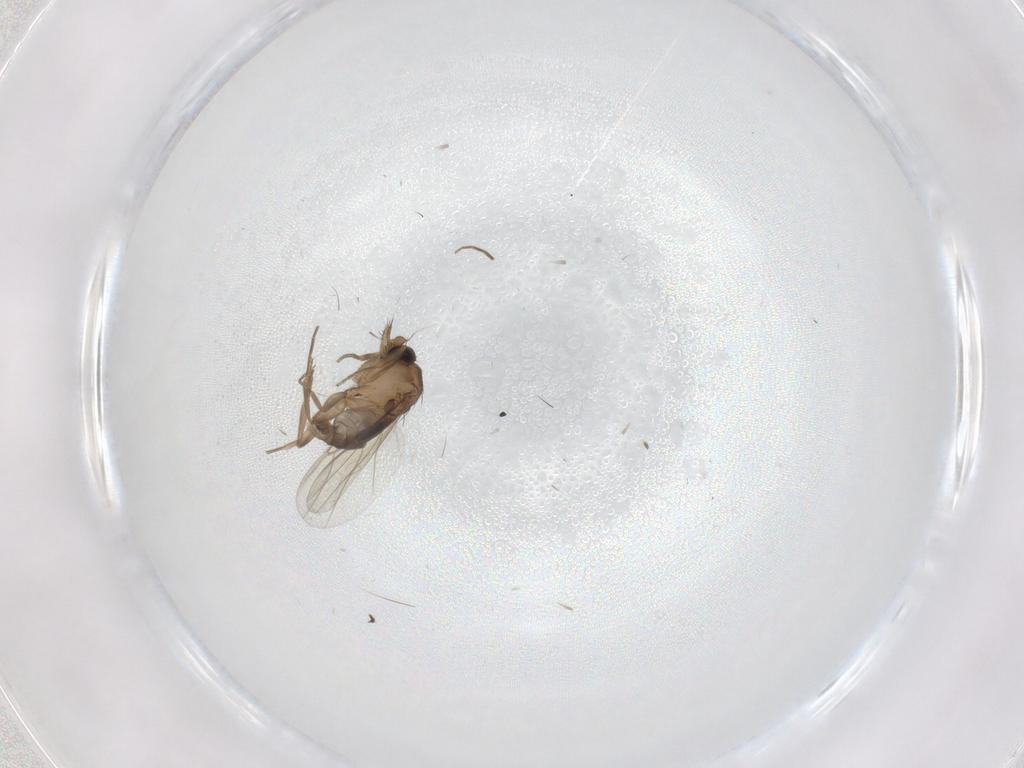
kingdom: Animalia
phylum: Arthropoda
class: Insecta
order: Diptera
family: Phoridae
